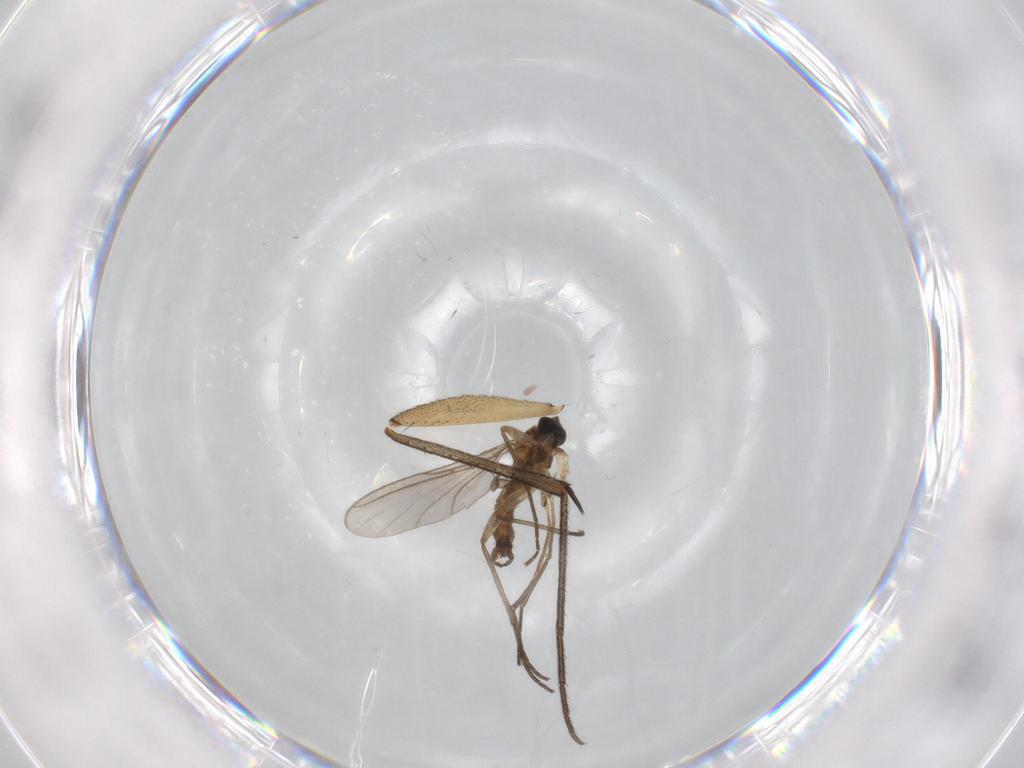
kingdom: Animalia
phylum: Arthropoda
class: Insecta
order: Diptera
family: Sciaridae
